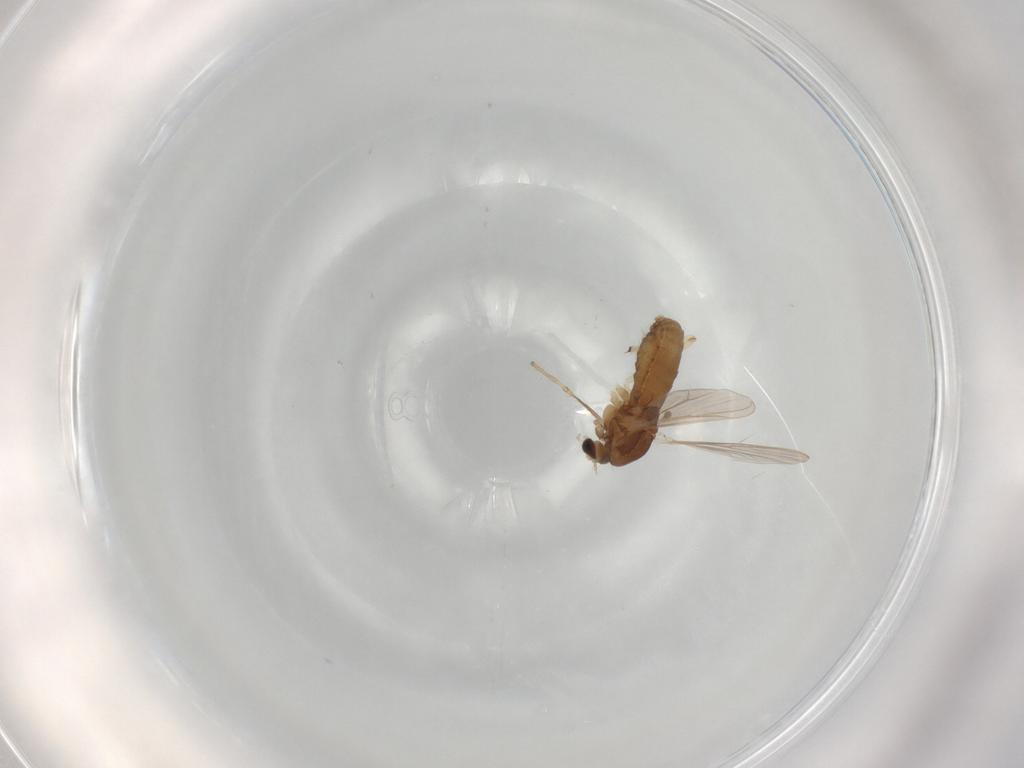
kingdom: Animalia
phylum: Arthropoda
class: Insecta
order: Diptera
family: Chironomidae
